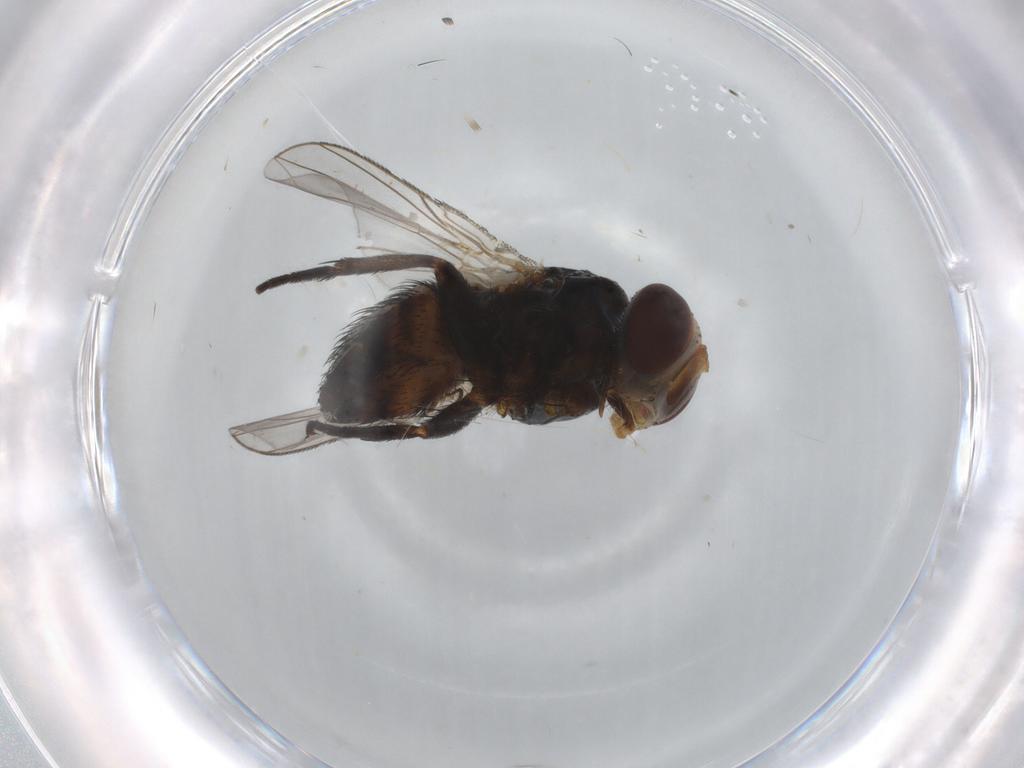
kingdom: Animalia
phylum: Arthropoda
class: Insecta
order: Diptera
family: Ceratopogonidae
